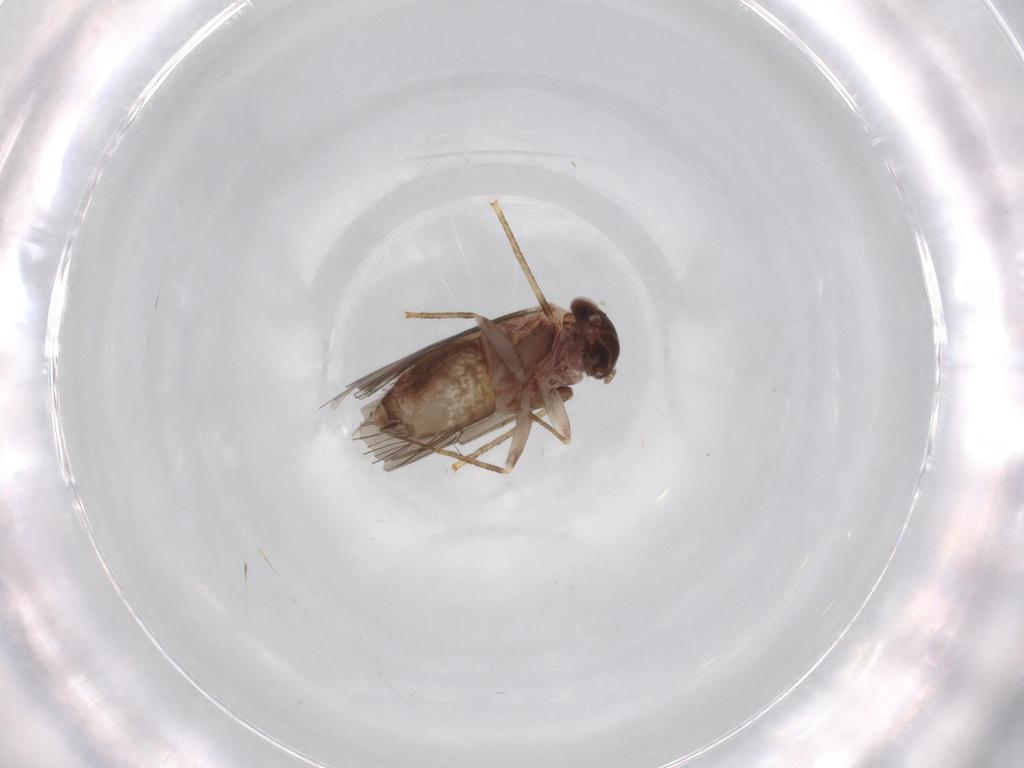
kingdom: Animalia
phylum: Arthropoda
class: Insecta
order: Psocodea
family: Lepidopsocidae
